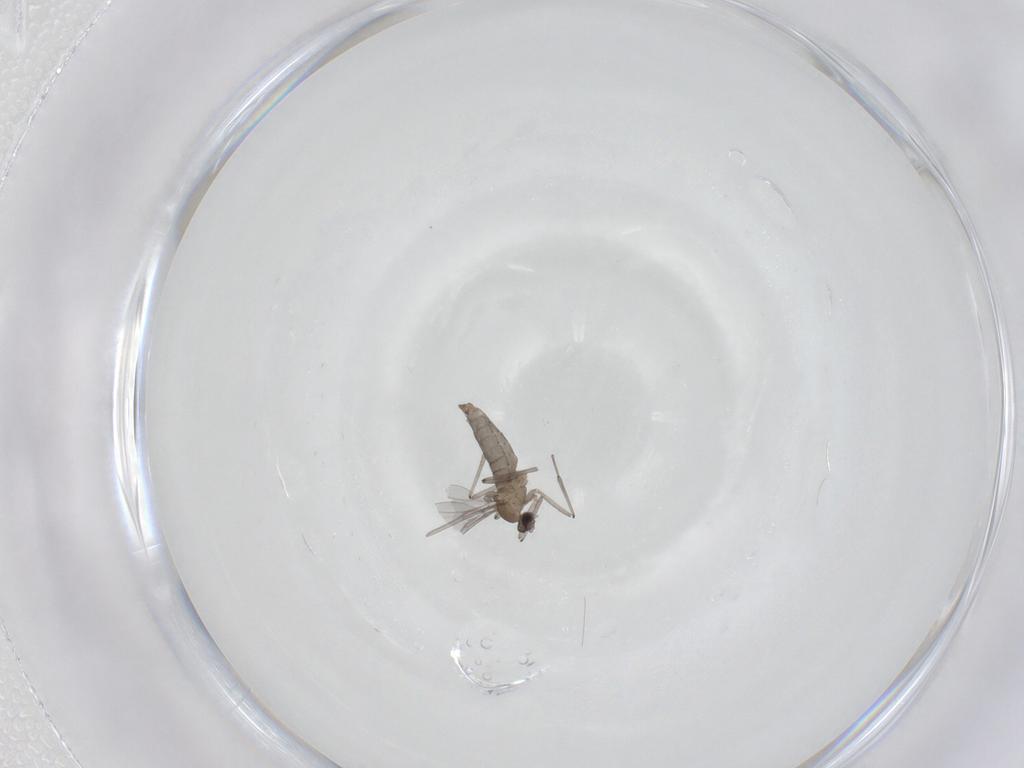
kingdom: Animalia
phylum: Arthropoda
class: Insecta
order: Diptera
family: Cecidomyiidae
